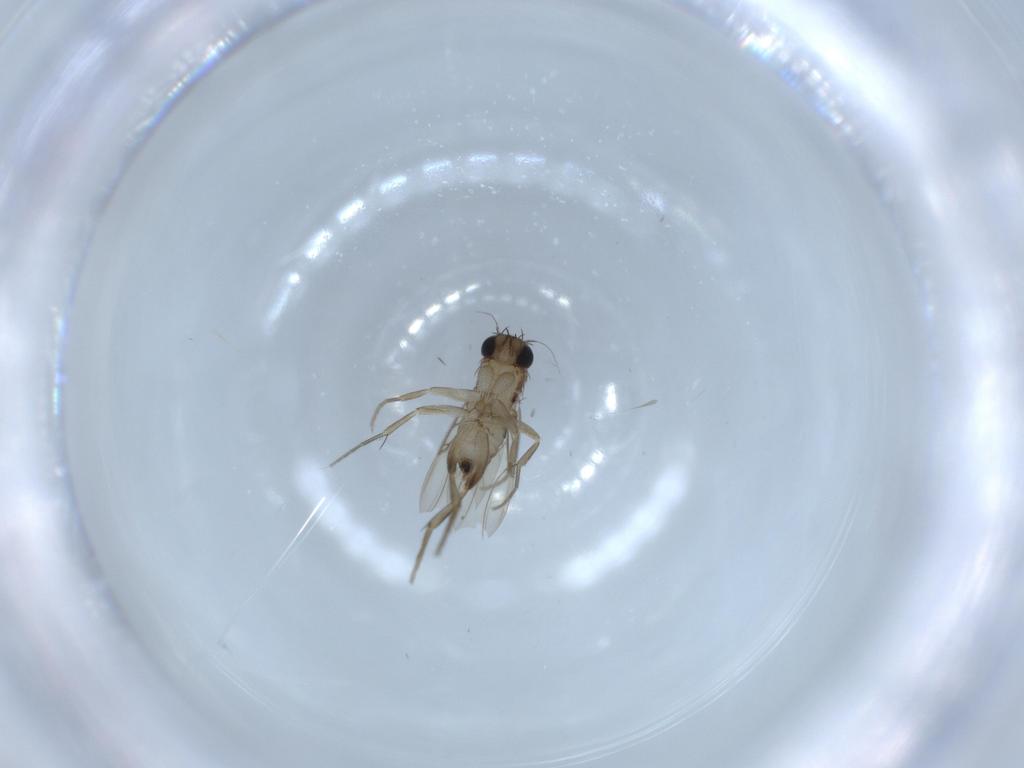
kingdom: Animalia
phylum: Arthropoda
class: Insecta
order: Diptera
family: Phoridae
